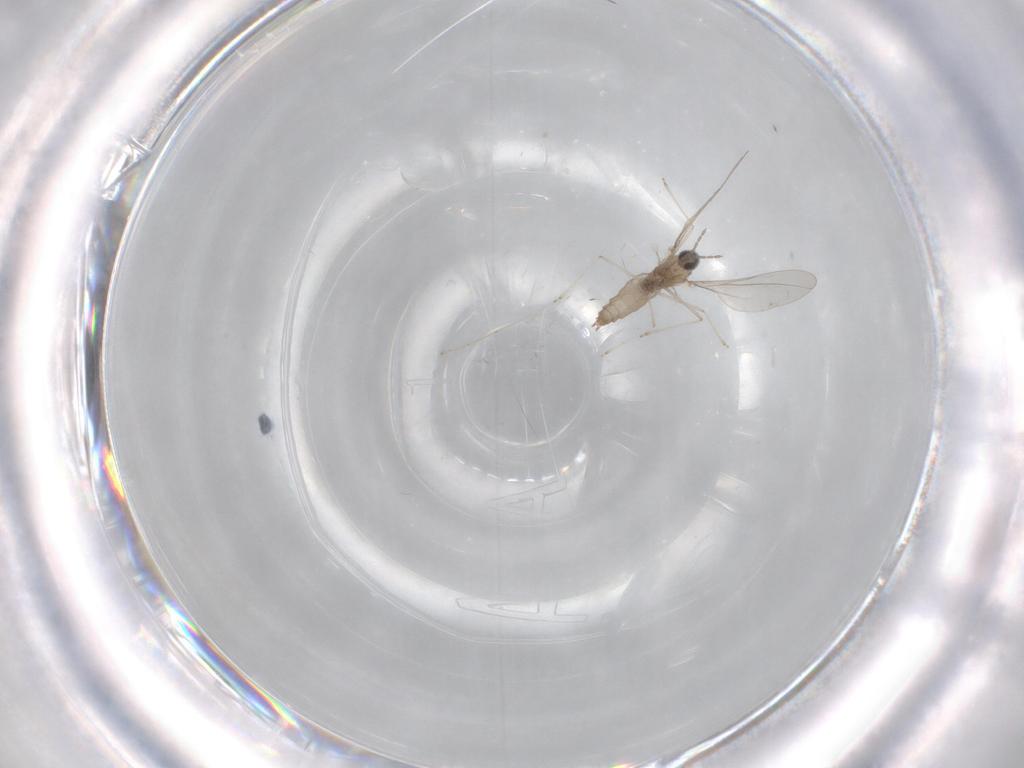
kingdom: Animalia
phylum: Arthropoda
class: Insecta
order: Diptera
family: Cecidomyiidae
